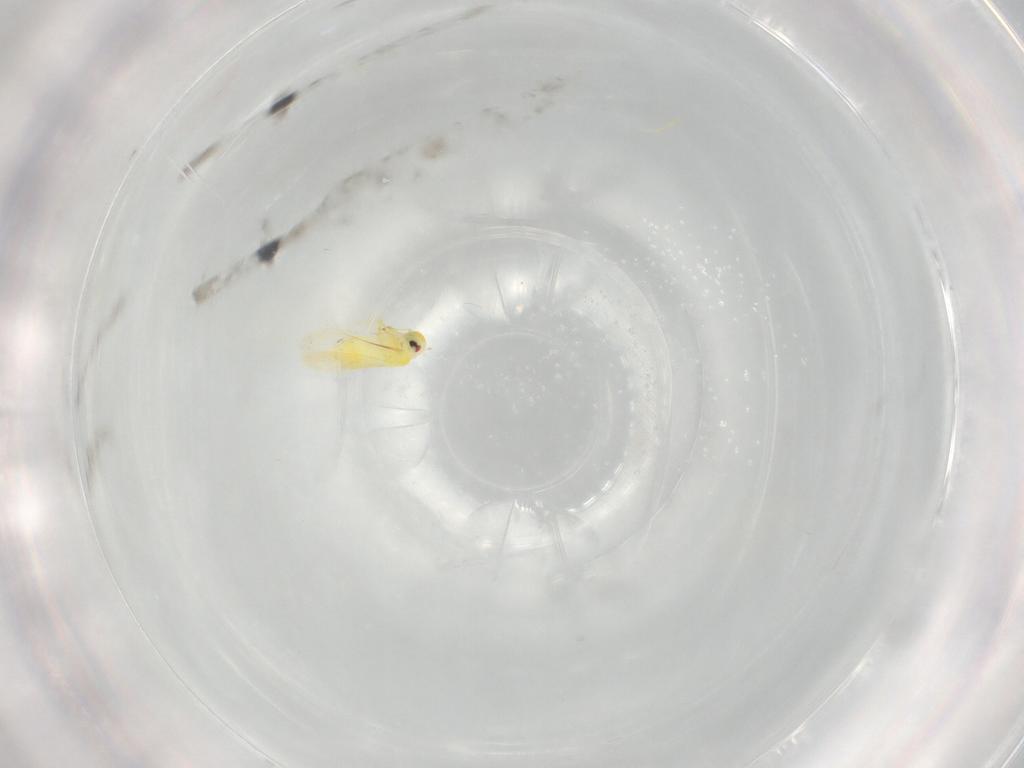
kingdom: Animalia
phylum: Arthropoda
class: Insecta
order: Hemiptera
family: Aleyrodidae
